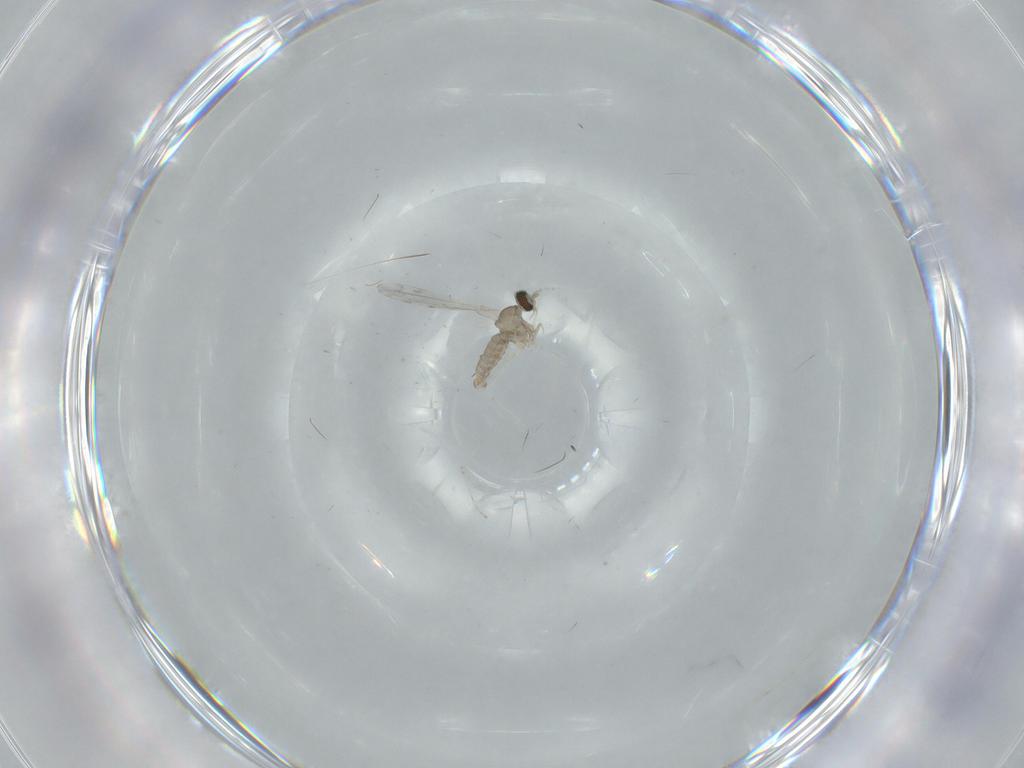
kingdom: Animalia
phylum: Arthropoda
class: Insecta
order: Diptera
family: Cecidomyiidae
